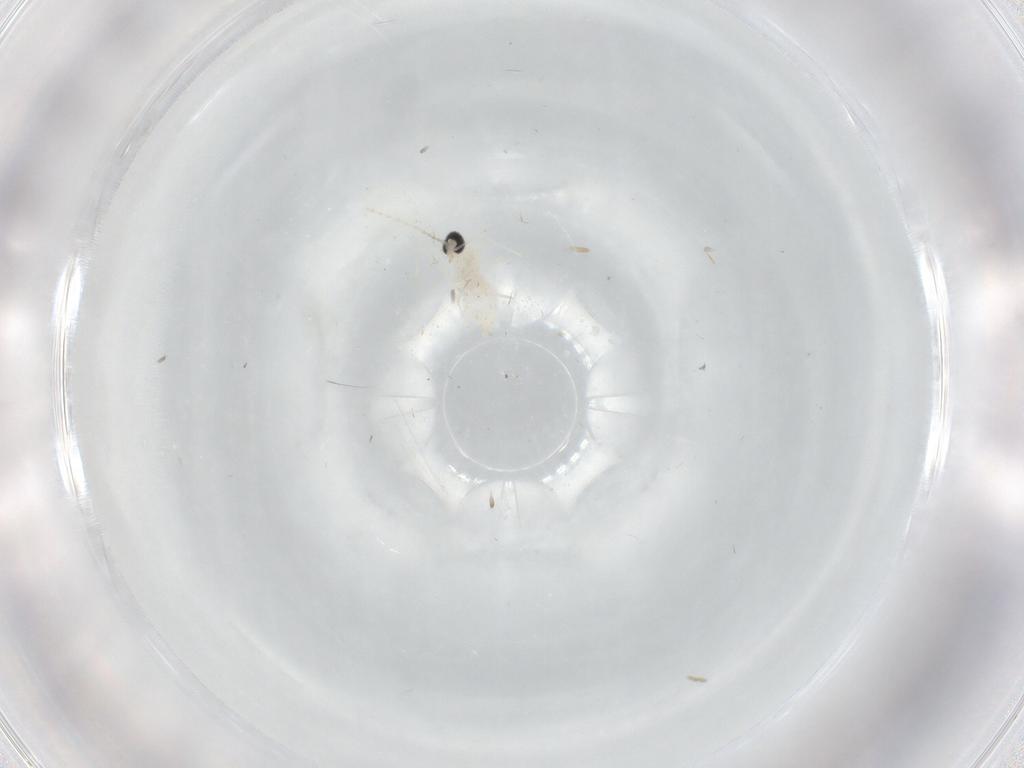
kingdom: Animalia
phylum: Arthropoda
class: Insecta
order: Diptera
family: Cecidomyiidae
